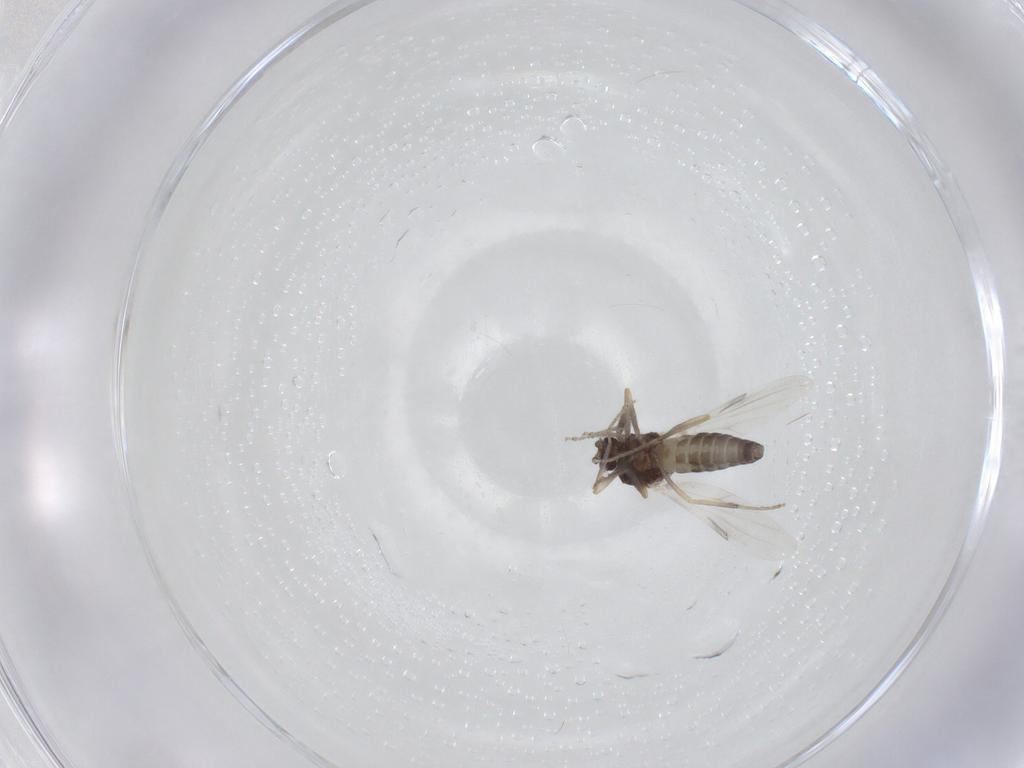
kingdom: Animalia
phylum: Arthropoda
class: Insecta
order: Diptera
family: Ceratopogonidae
